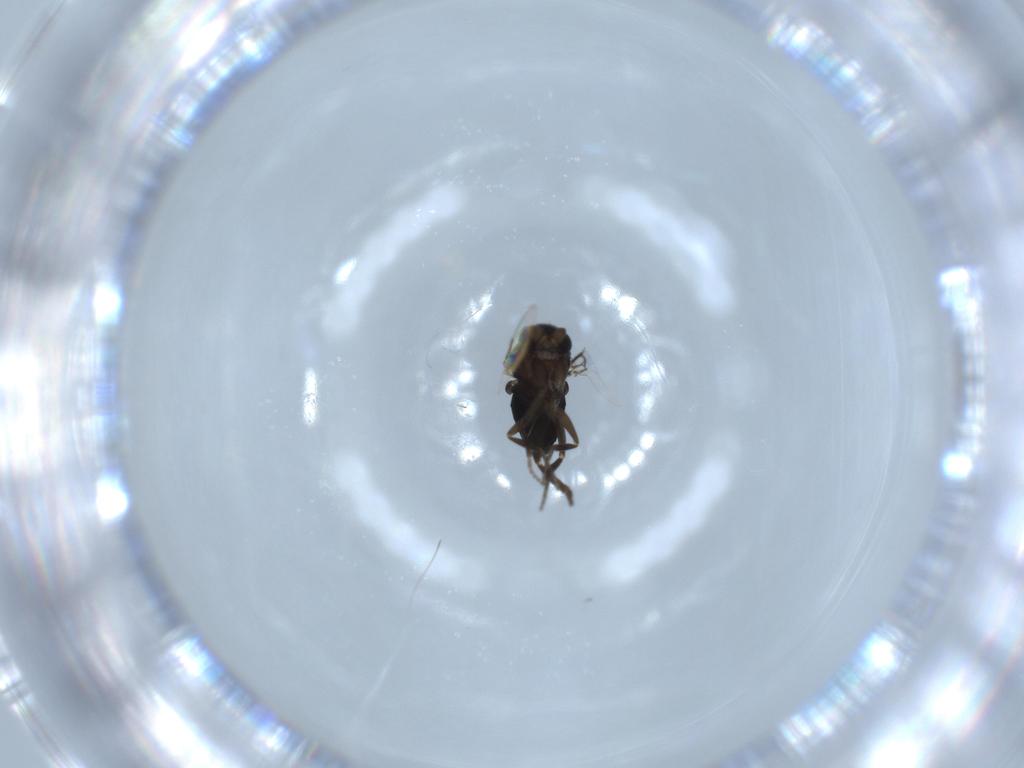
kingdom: Animalia
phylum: Arthropoda
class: Insecta
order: Diptera
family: Phoridae
